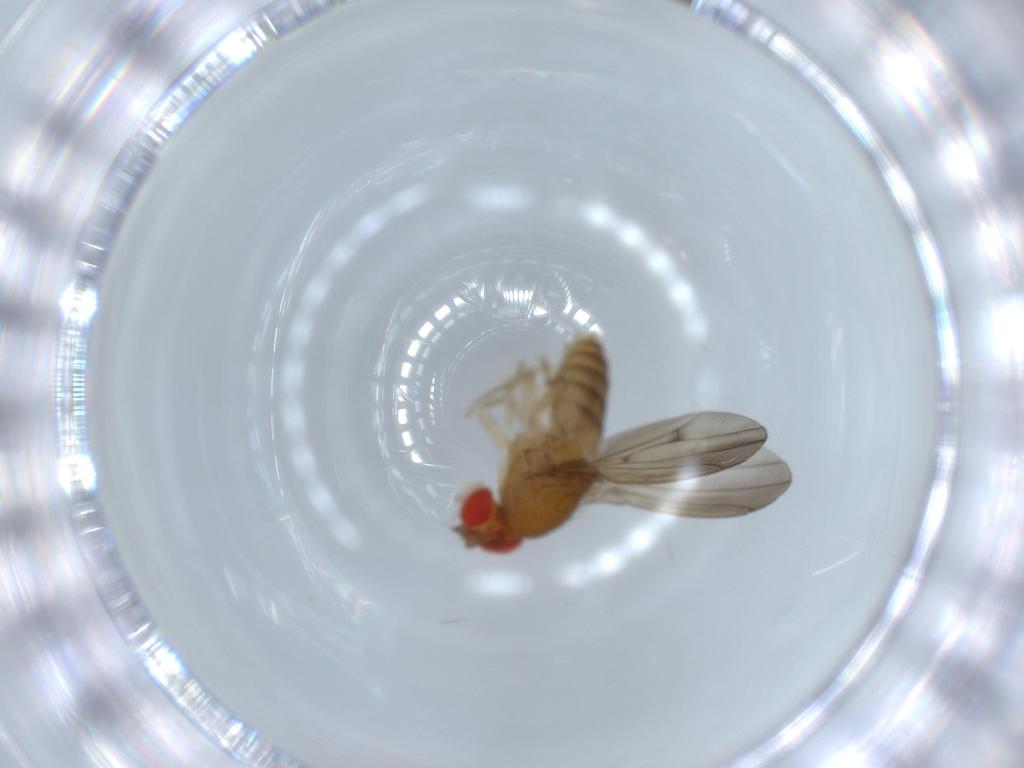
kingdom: Animalia
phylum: Arthropoda
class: Insecta
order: Diptera
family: Drosophilidae
